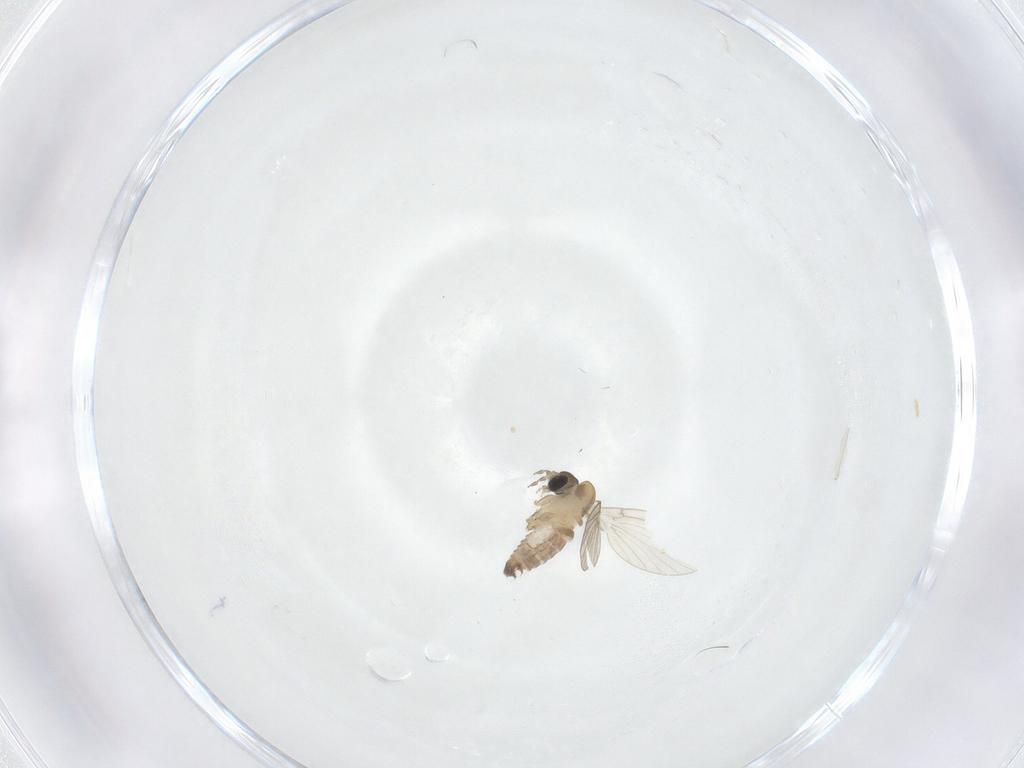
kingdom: Animalia
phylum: Arthropoda
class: Insecta
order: Diptera
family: Psychodidae
